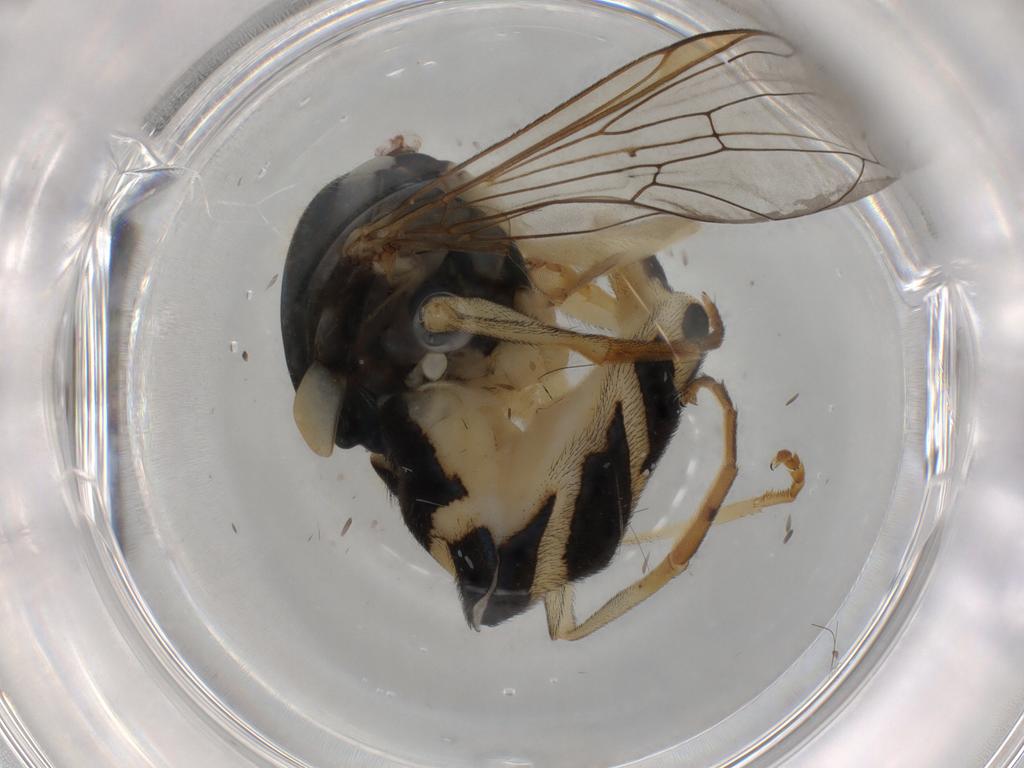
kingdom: Animalia
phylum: Arthropoda
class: Insecta
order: Diptera
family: Syrphidae
